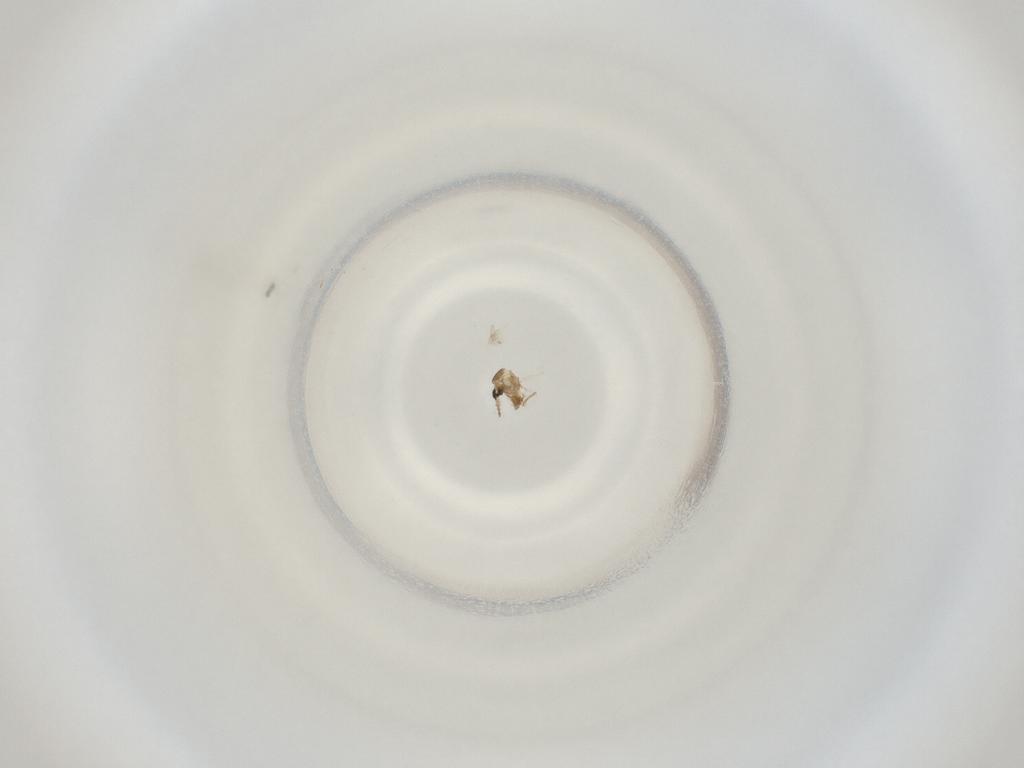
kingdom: Animalia
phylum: Arthropoda
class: Insecta
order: Diptera
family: Cecidomyiidae
